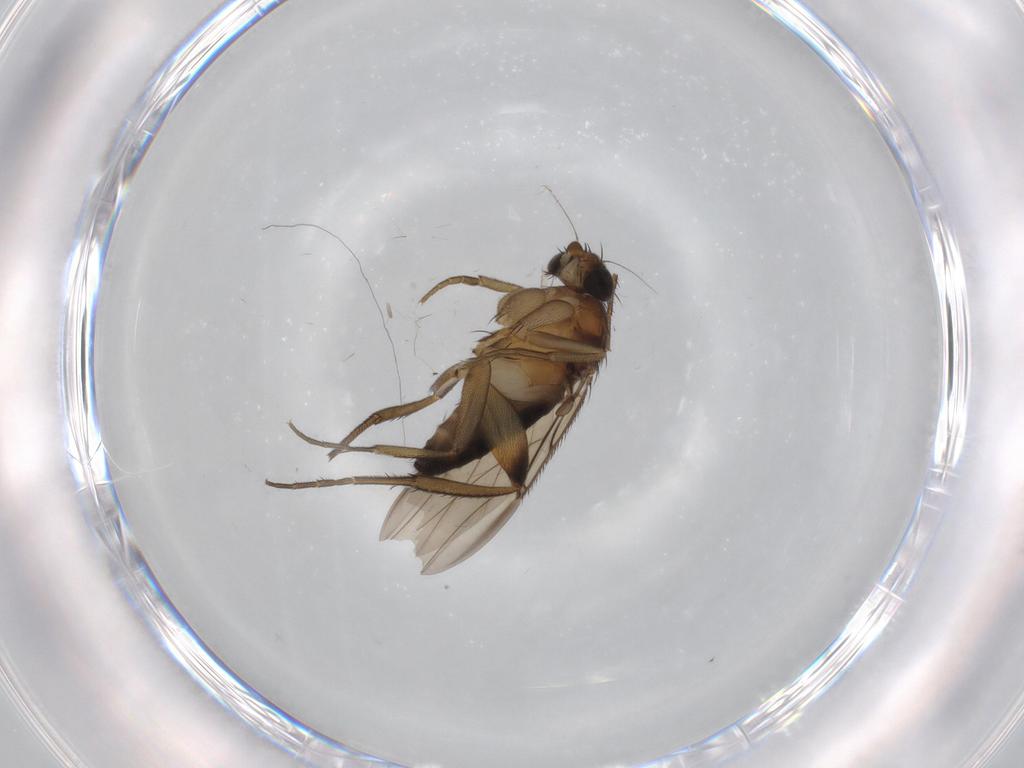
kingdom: Animalia
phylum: Arthropoda
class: Insecta
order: Diptera
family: Phoridae
